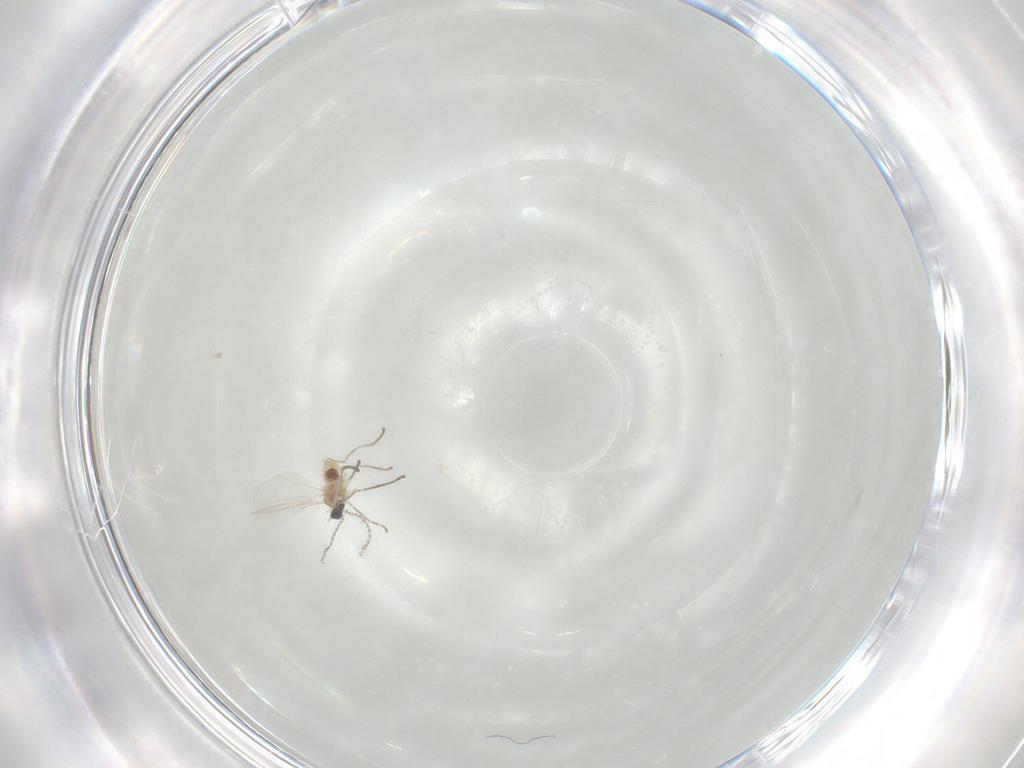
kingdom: Animalia
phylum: Arthropoda
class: Insecta
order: Diptera
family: Cecidomyiidae
